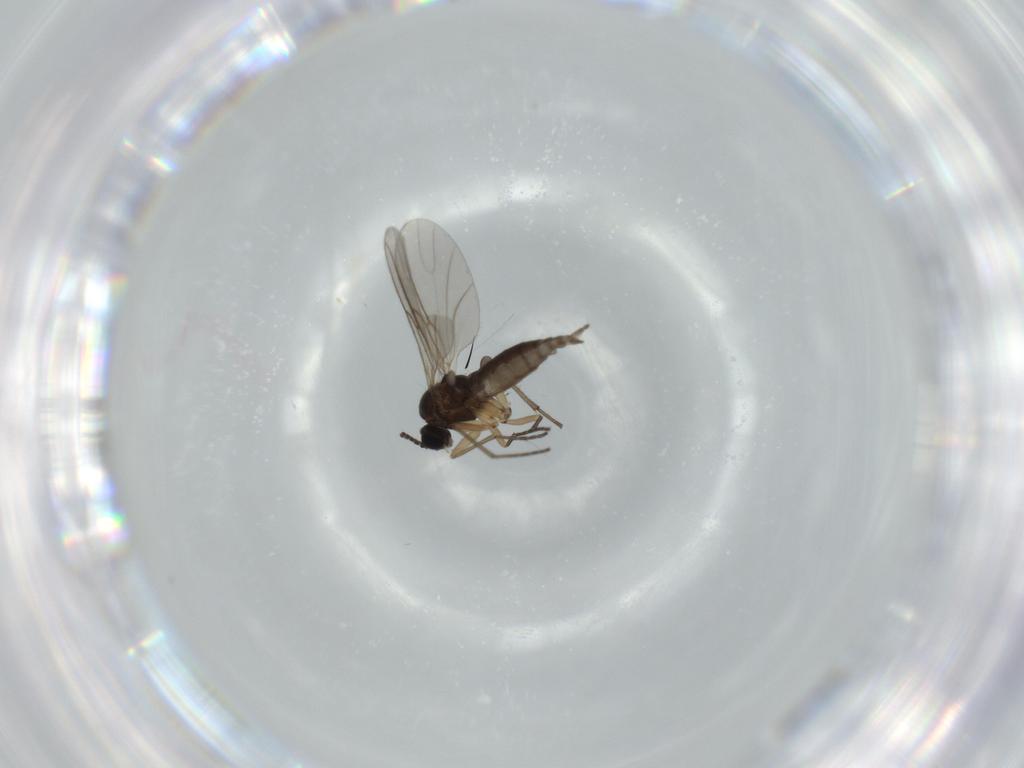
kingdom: Animalia
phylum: Arthropoda
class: Insecta
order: Diptera
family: Sciaridae
